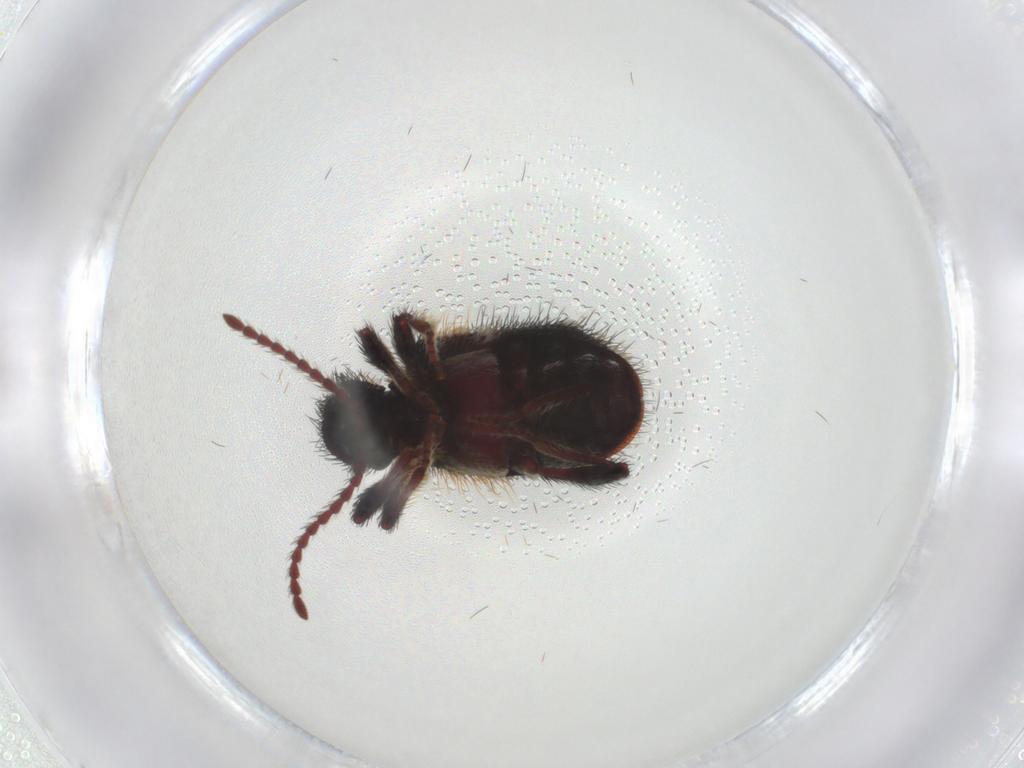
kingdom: Animalia
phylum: Arthropoda
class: Insecta
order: Coleoptera
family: Ptinidae
